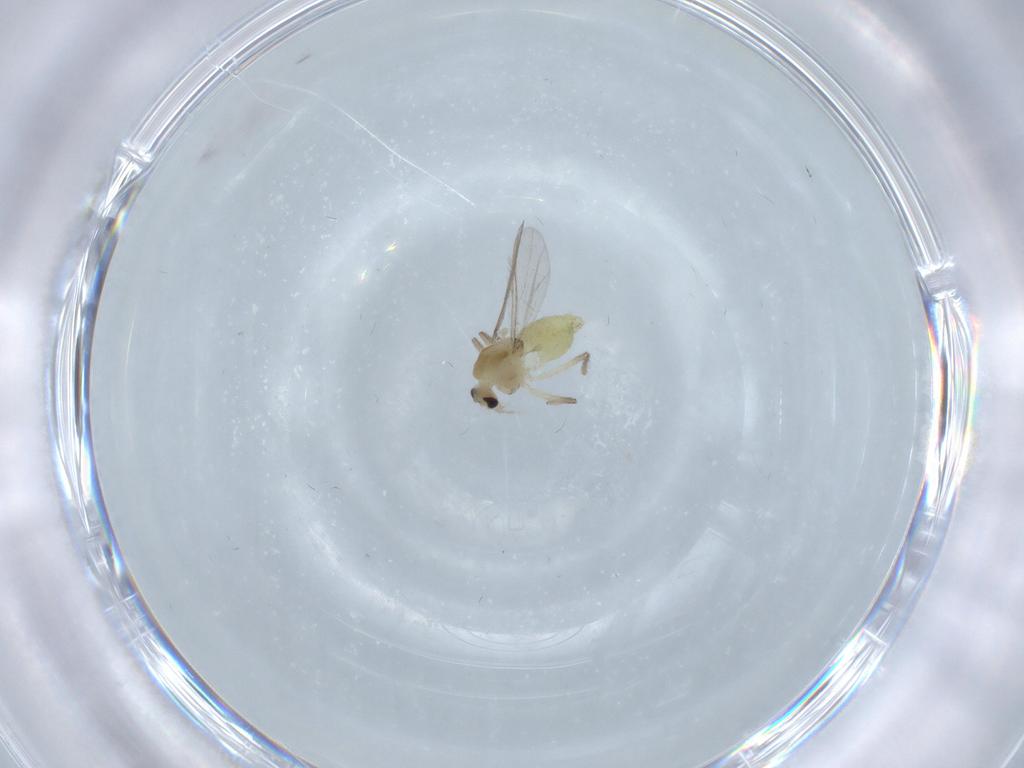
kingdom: Animalia
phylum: Arthropoda
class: Insecta
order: Diptera
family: Chironomidae
